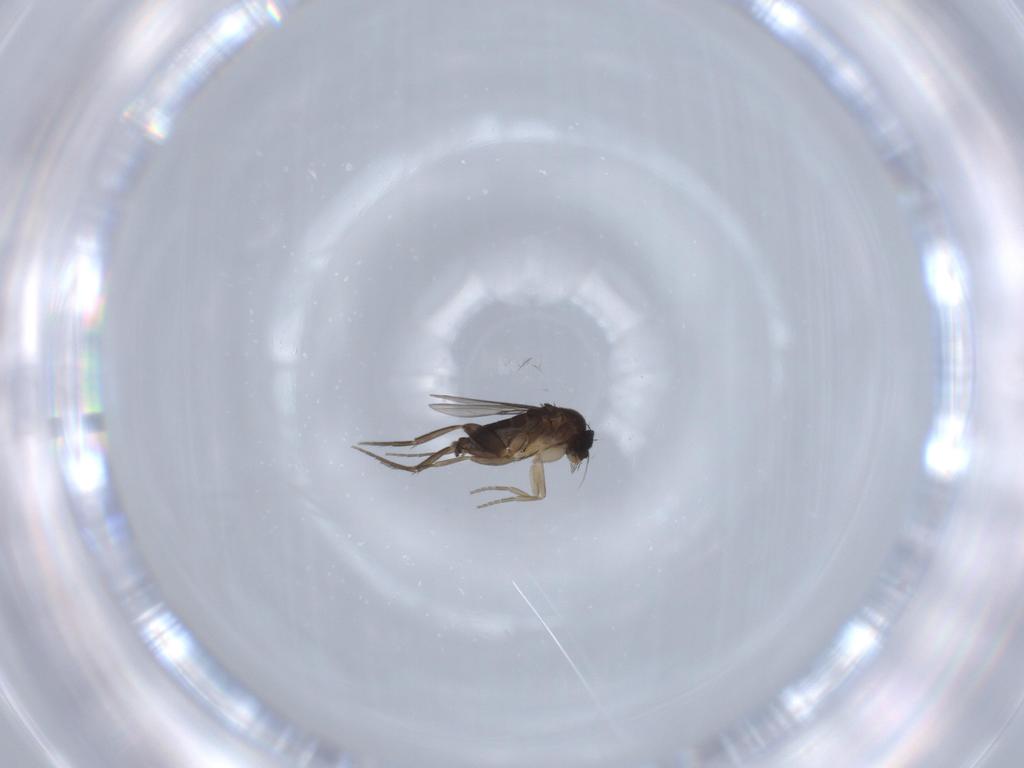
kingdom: Animalia
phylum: Arthropoda
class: Insecta
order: Diptera
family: Phoridae
